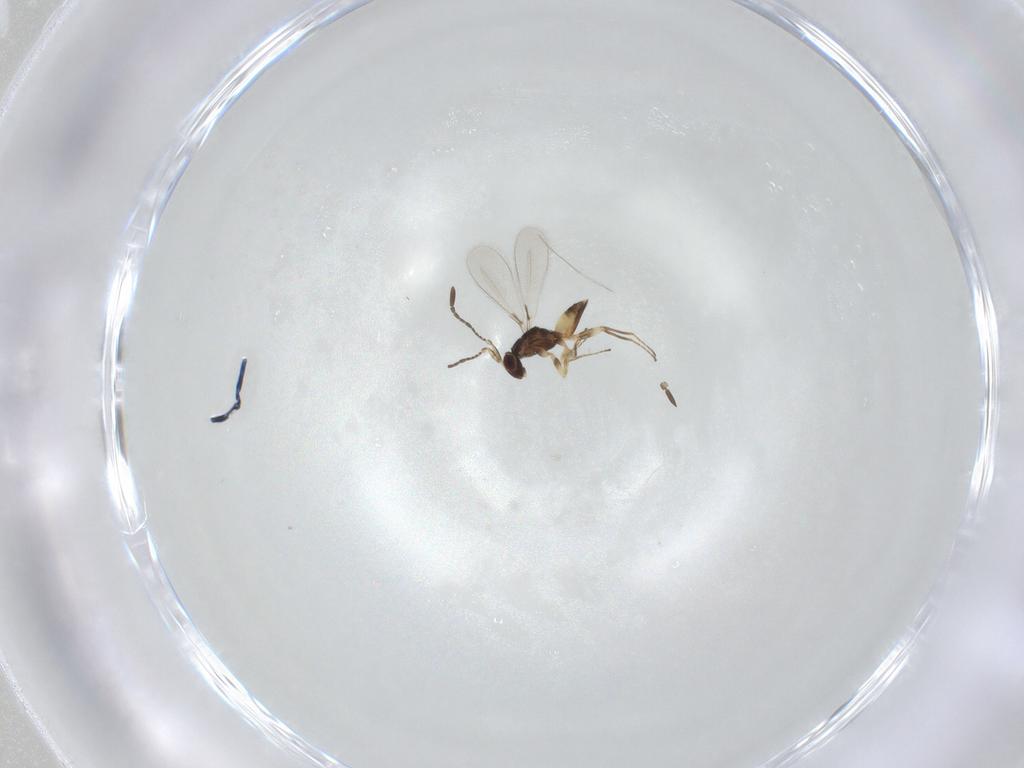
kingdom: Animalia
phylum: Arthropoda
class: Insecta
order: Hymenoptera
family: Mymaridae
